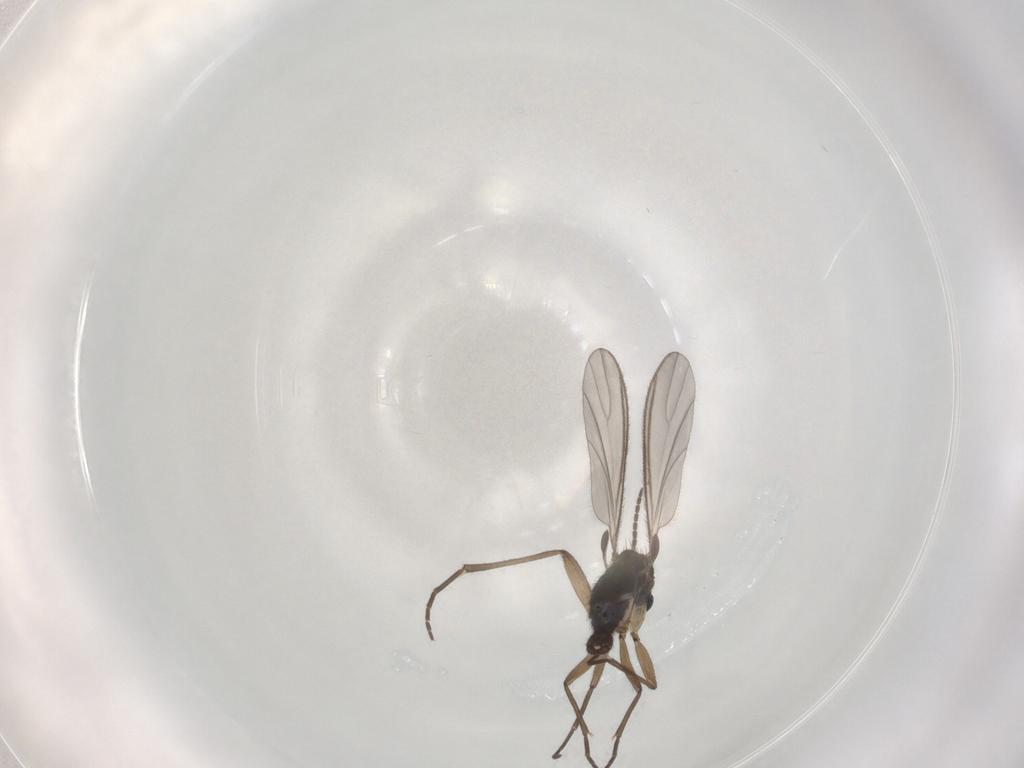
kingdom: Animalia
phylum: Arthropoda
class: Insecta
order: Diptera
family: Sciaridae
